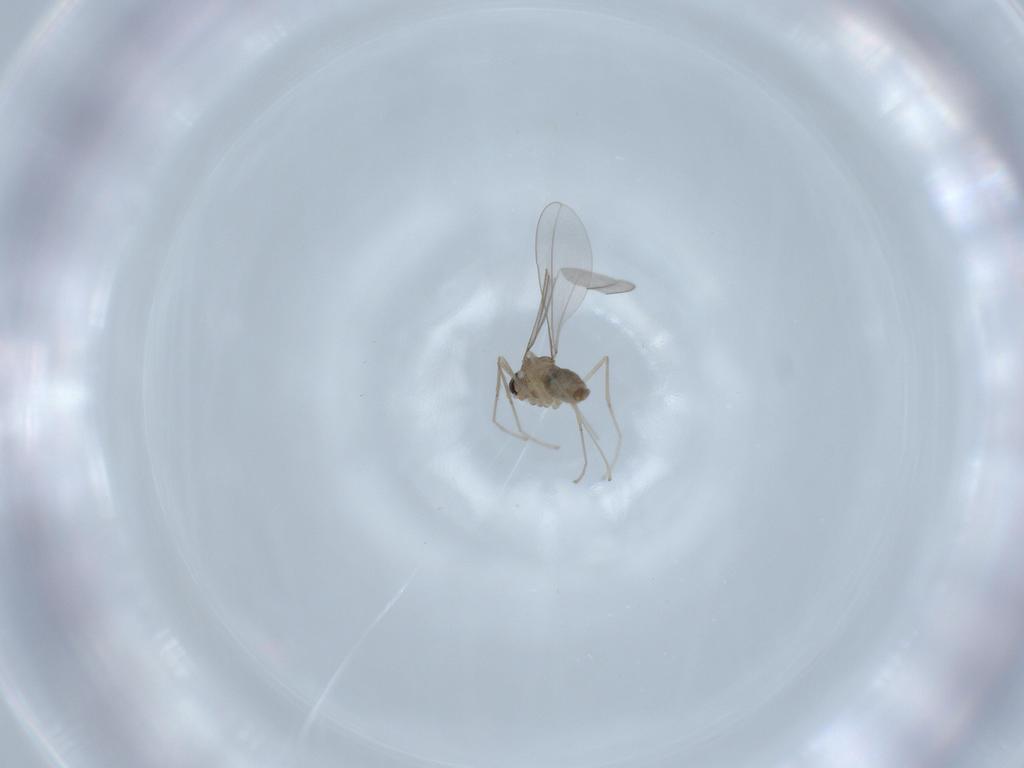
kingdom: Animalia
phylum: Arthropoda
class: Insecta
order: Diptera
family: Cecidomyiidae
